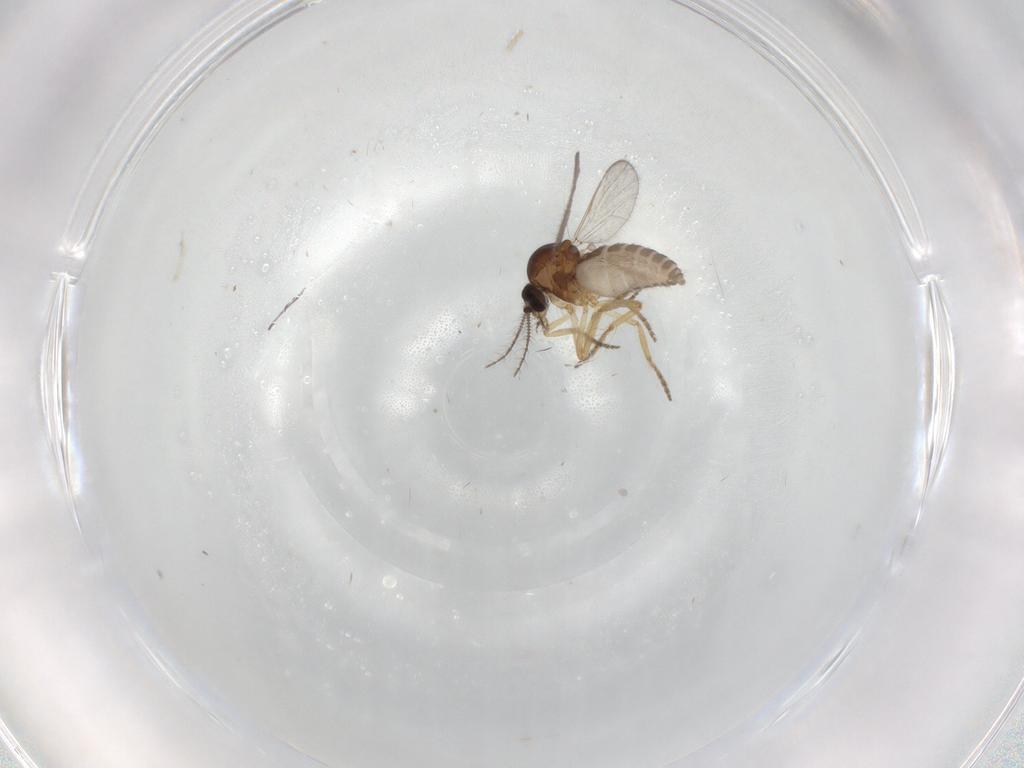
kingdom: Animalia
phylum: Arthropoda
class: Insecta
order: Diptera
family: Ceratopogonidae
